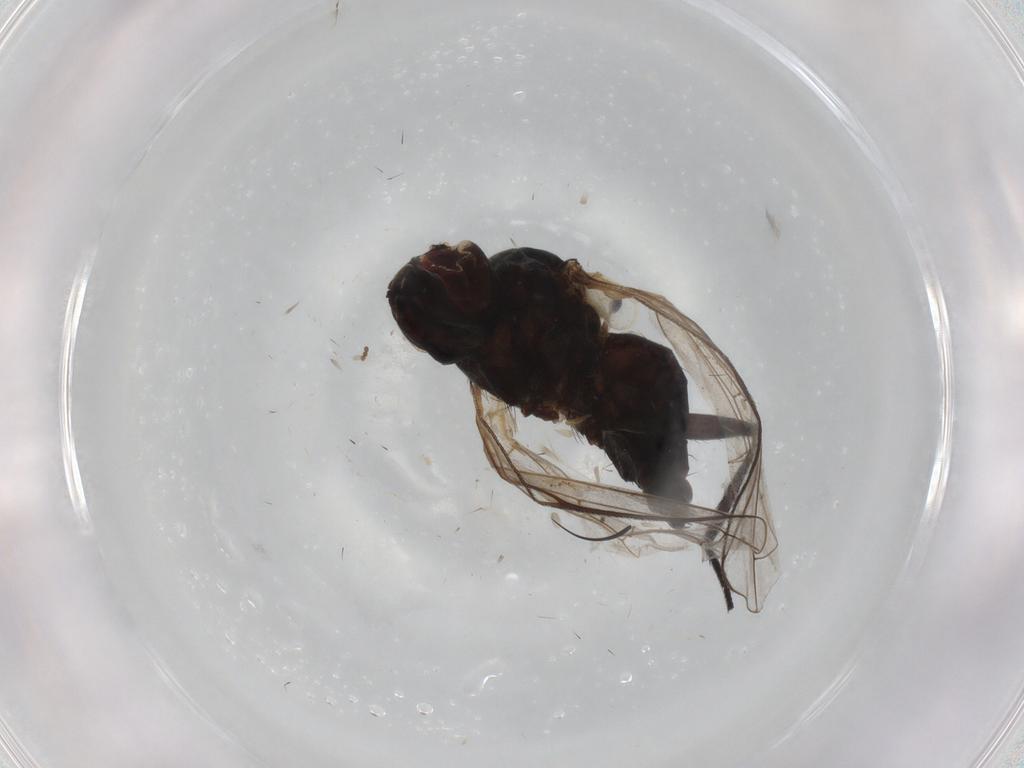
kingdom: Animalia
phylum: Arthropoda
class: Insecta
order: Diptera
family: Tachinidae
